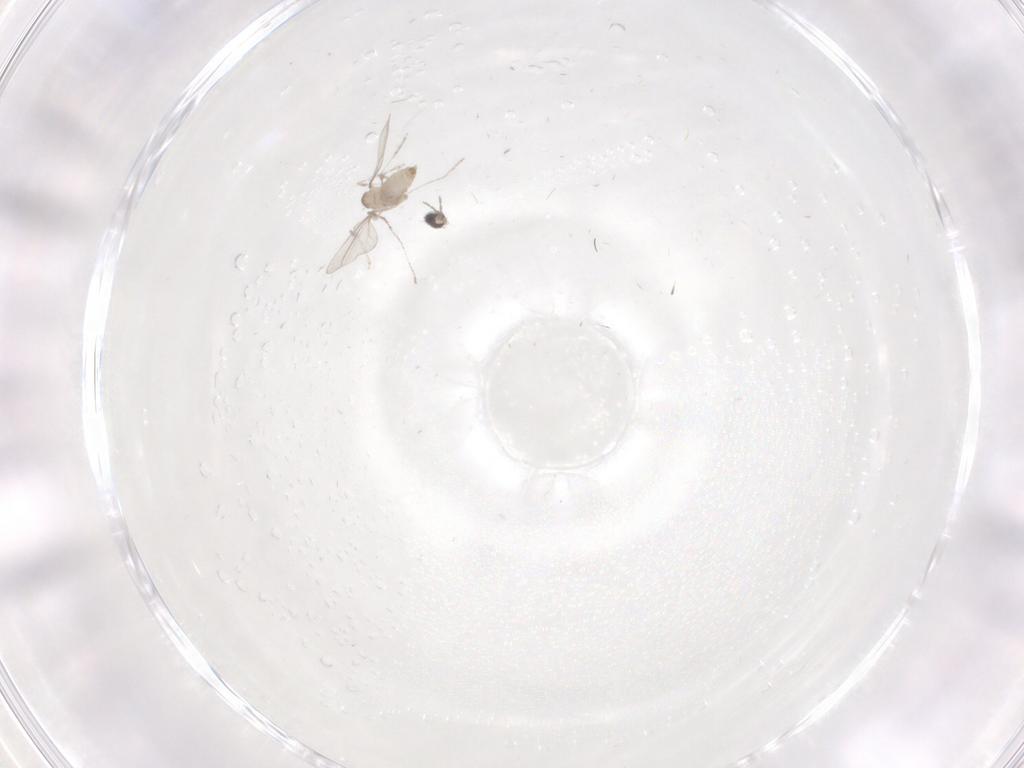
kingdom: Animalia
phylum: Arthropoda
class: Insecta
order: Diptera
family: Cecidomyiidae
